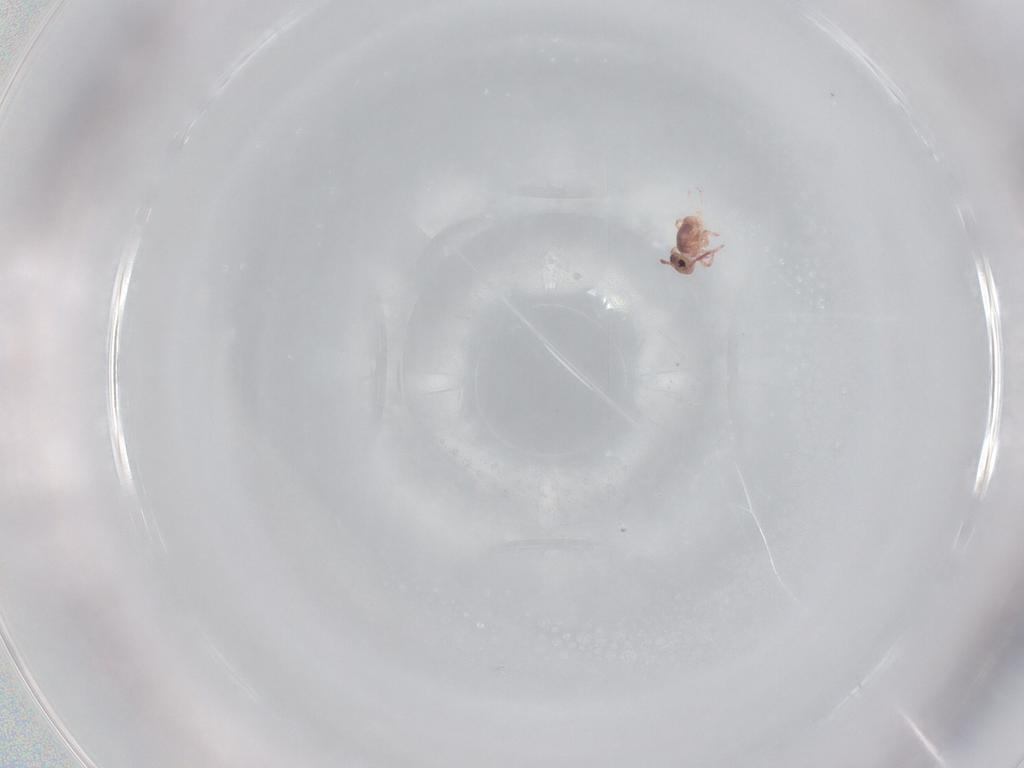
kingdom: Animalia
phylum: Arthropoda
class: Collembola
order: Symphypleona
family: Sminthurididae
